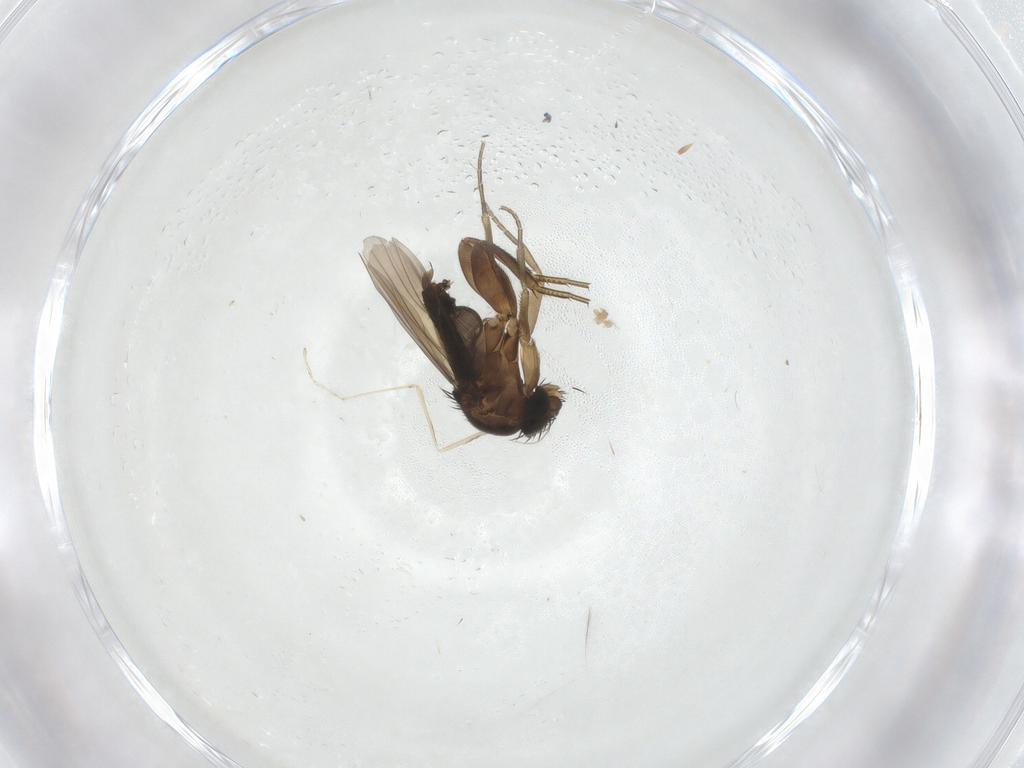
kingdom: Animalia
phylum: Arthropoda
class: Insecta
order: Diptera
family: Phoridae
